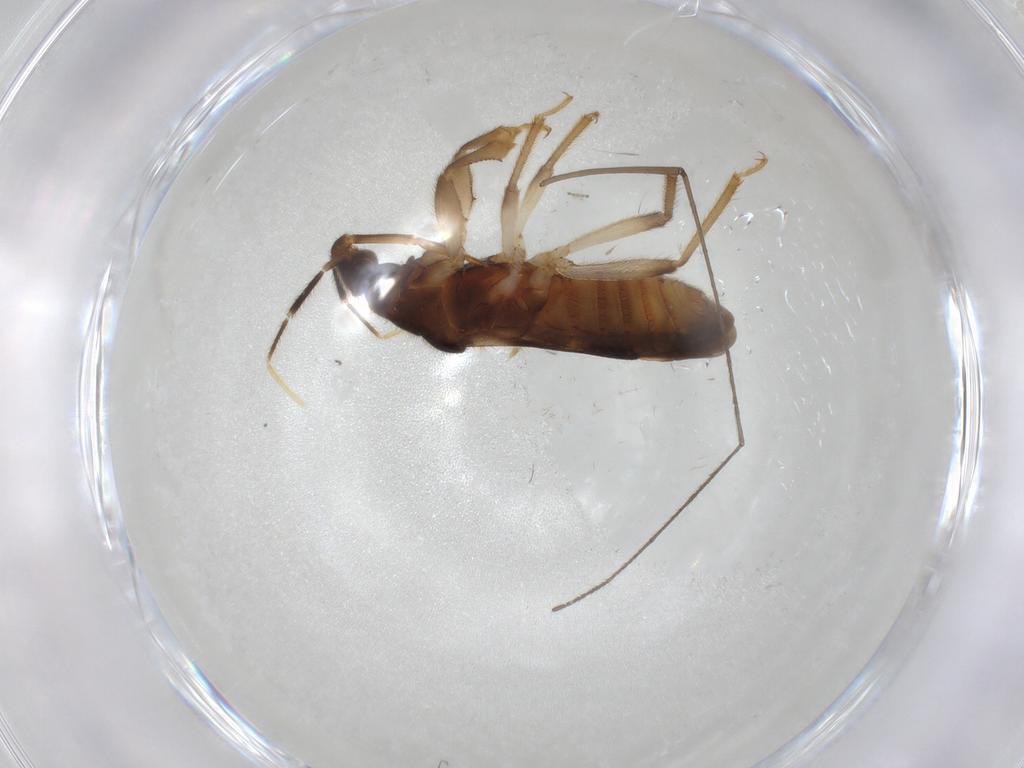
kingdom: Animalia
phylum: Arthropoda
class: Insecta
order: Hemiptera
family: Nabidae
